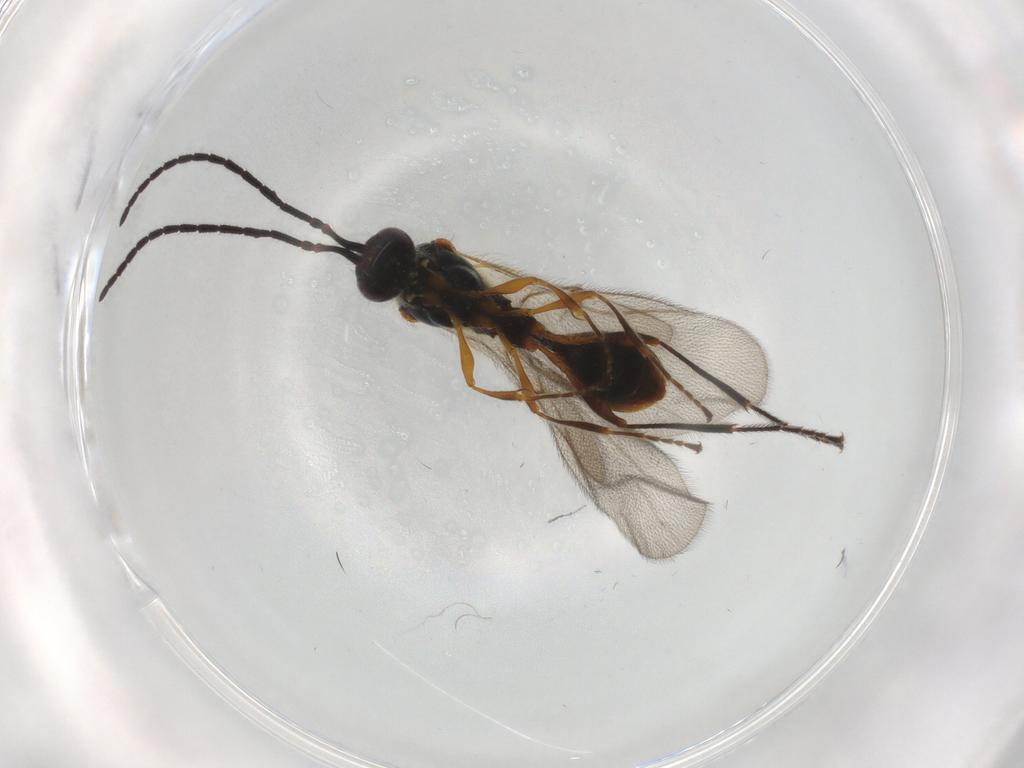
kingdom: Animalia
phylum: Arthropoda
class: Insecta
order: Hymenoptera
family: Diapriidae
